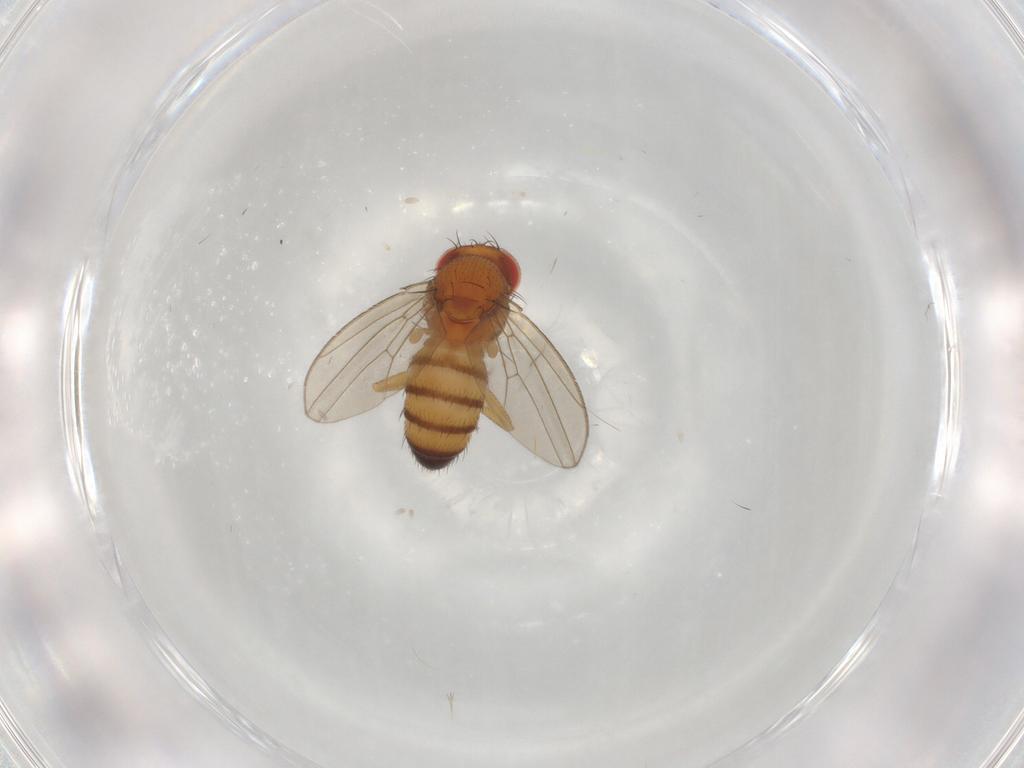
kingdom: Animalia
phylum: Arthropoda
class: Insecta
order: Diptera
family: Drosophilidae
